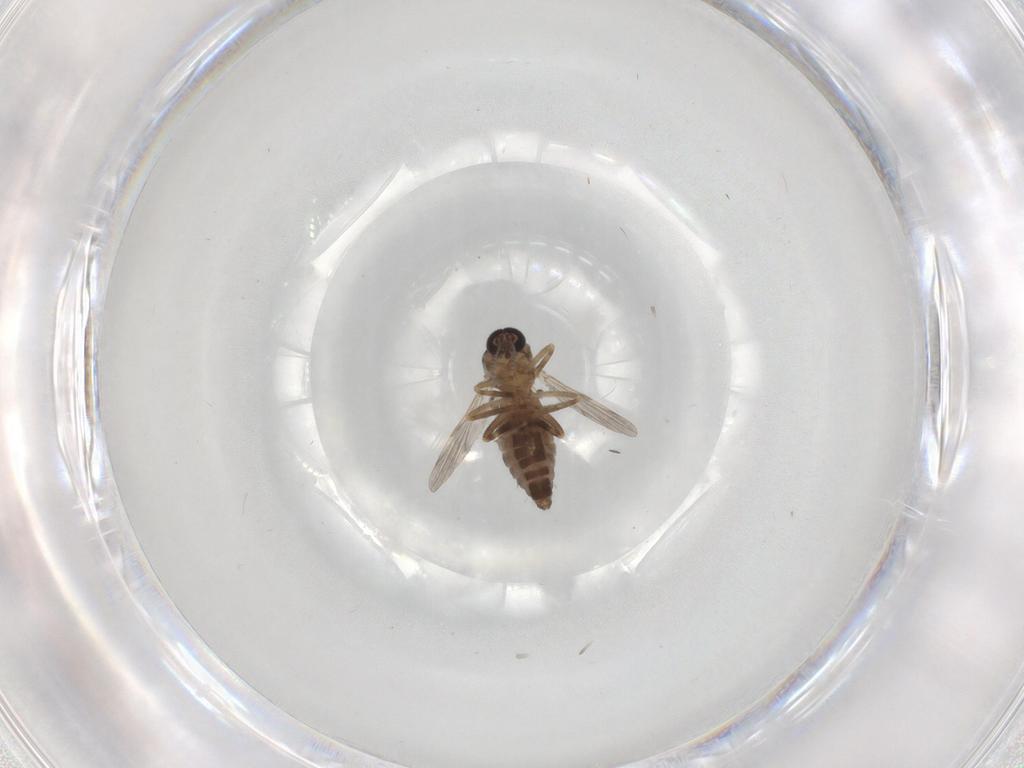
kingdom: Animalia
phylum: Arthropoda
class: Insecta
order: Diptera
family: Ceratopogonidae
